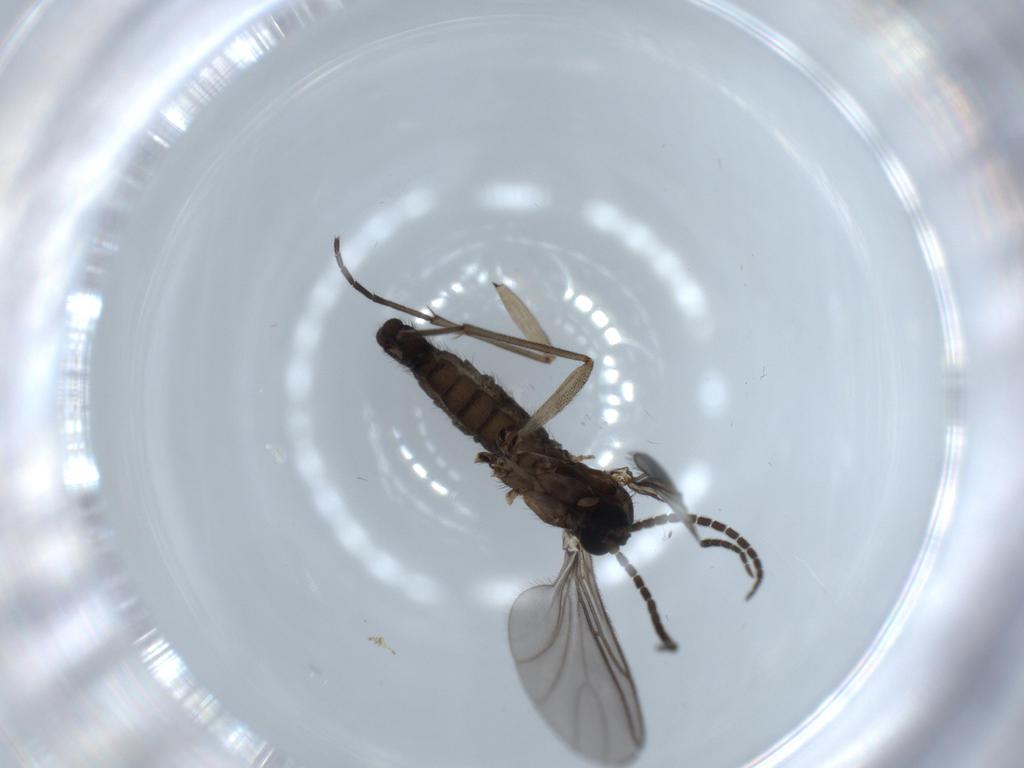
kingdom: Animalia
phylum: Arthropoda
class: Insecta
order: Diptera
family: Sciaridae
